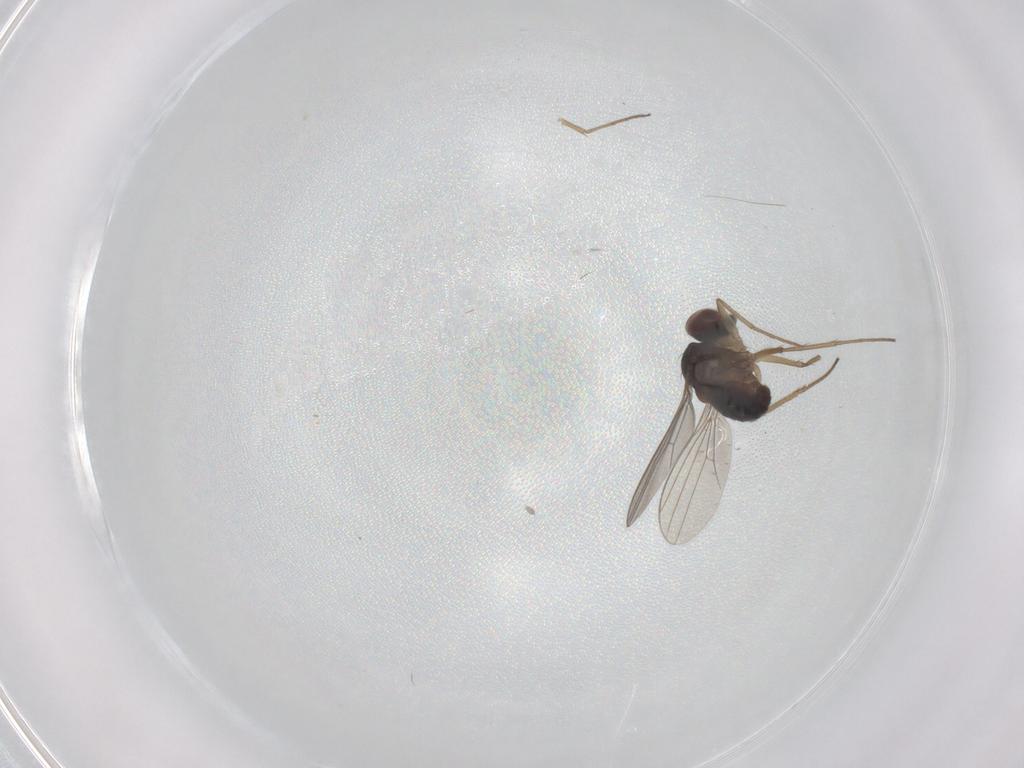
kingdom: Animalia
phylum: Arthropoda
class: Insecta
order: Diptera
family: Dolichopodidae
